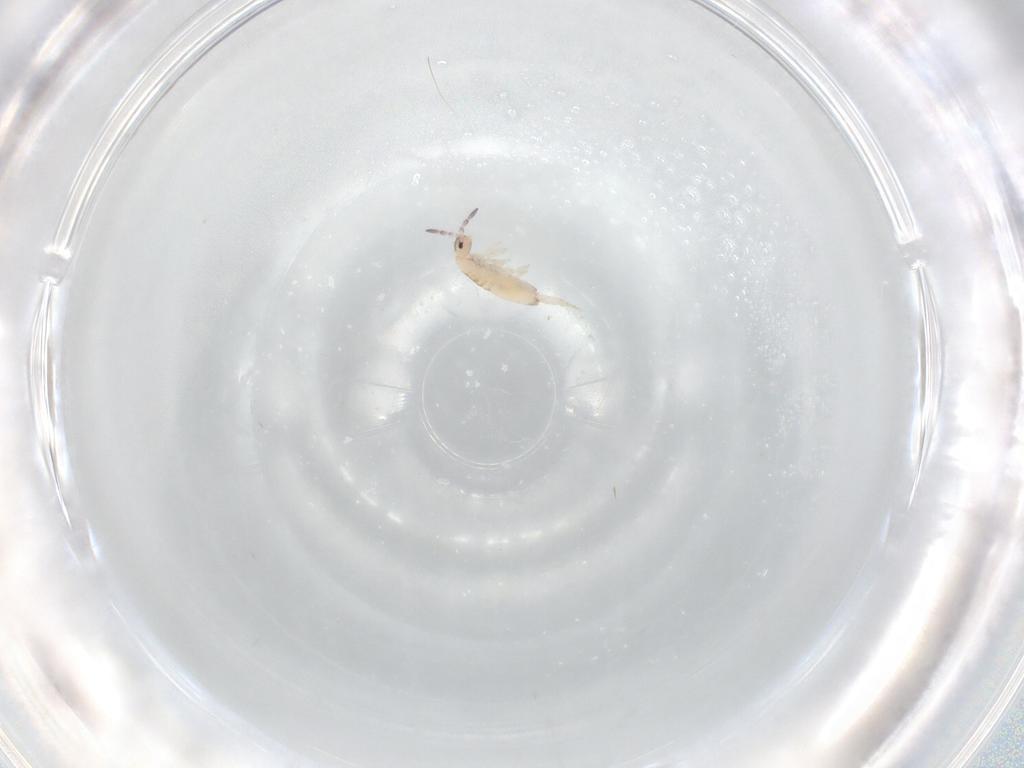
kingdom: Animalia
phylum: Arthropoda
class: Collembola
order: Entomobryomorpha
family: Entomobryidae
